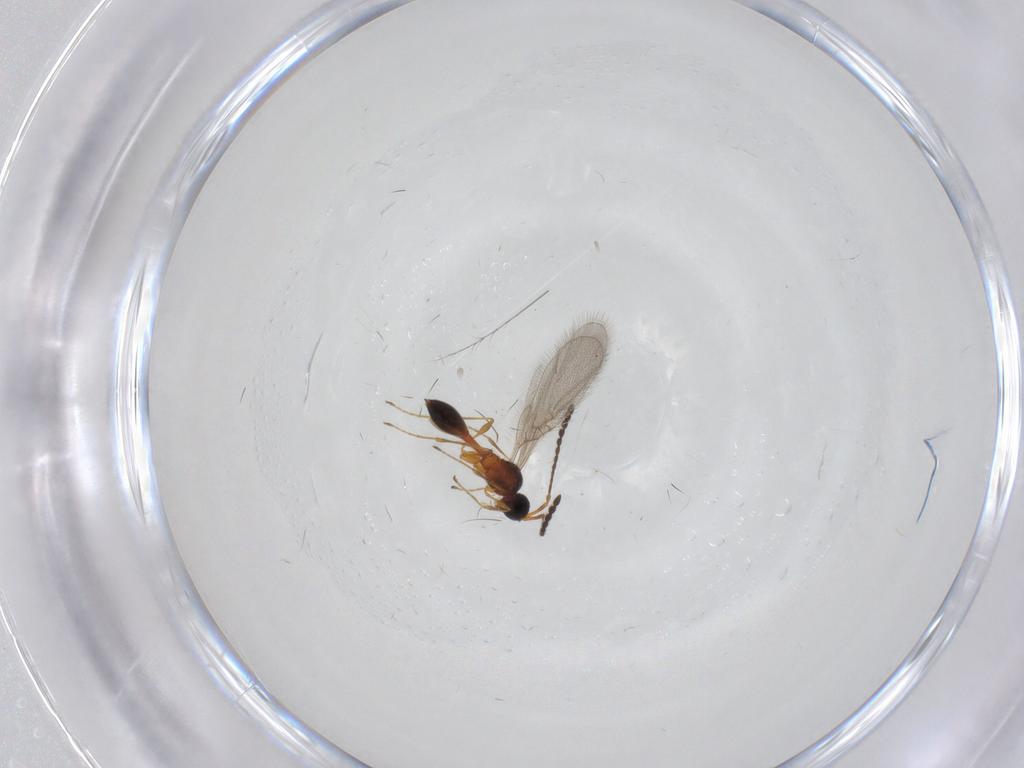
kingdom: Animalia
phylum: Arthropoda
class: Insecta
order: Hymenoptera
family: Diapriidae
